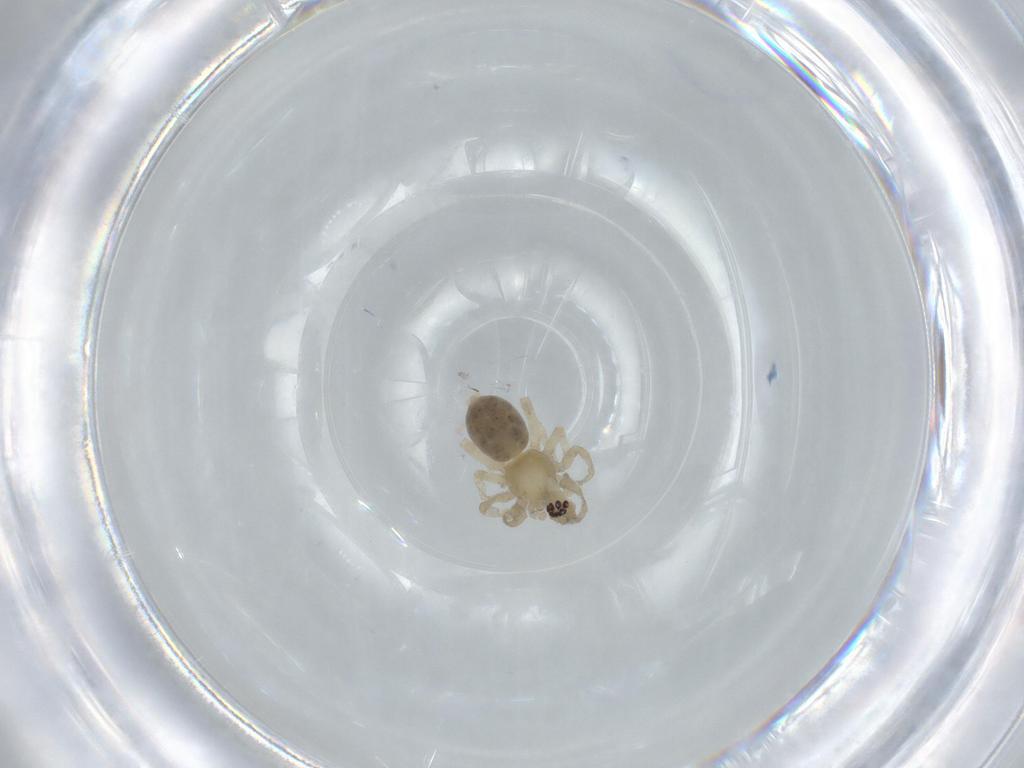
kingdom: Animalia
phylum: Arthropoda
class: Arachnida
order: Araneae
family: Anyphaenidae
